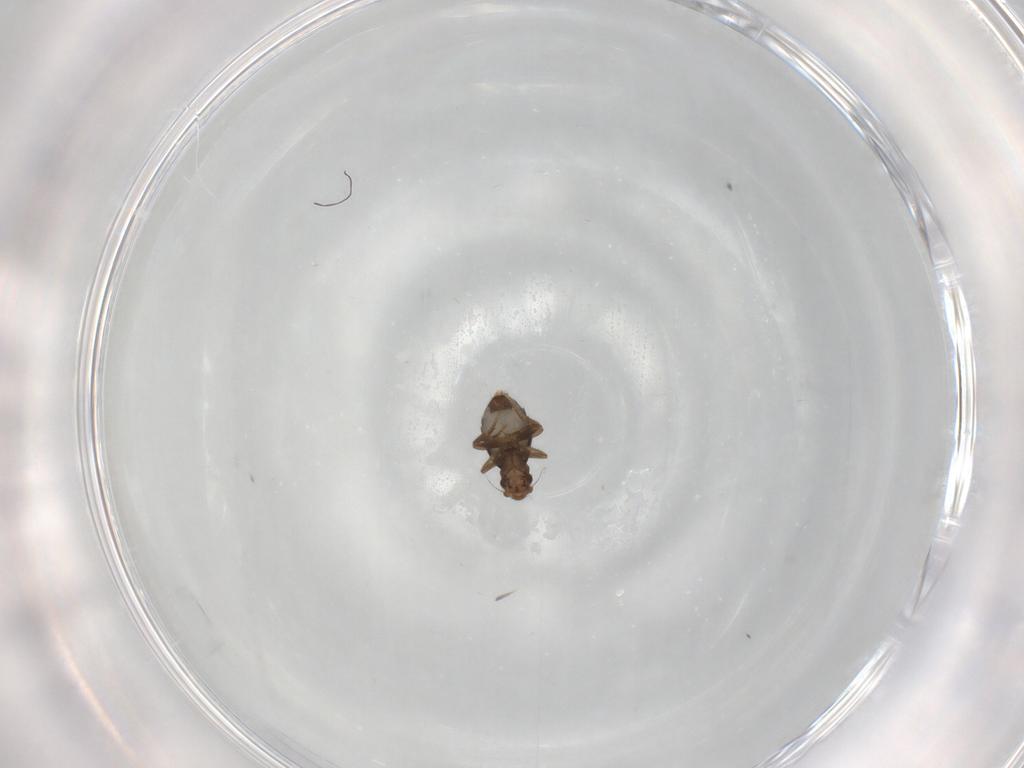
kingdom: Animalia
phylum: Arthropoda
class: Insecta
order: Diptera
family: Phoridae
